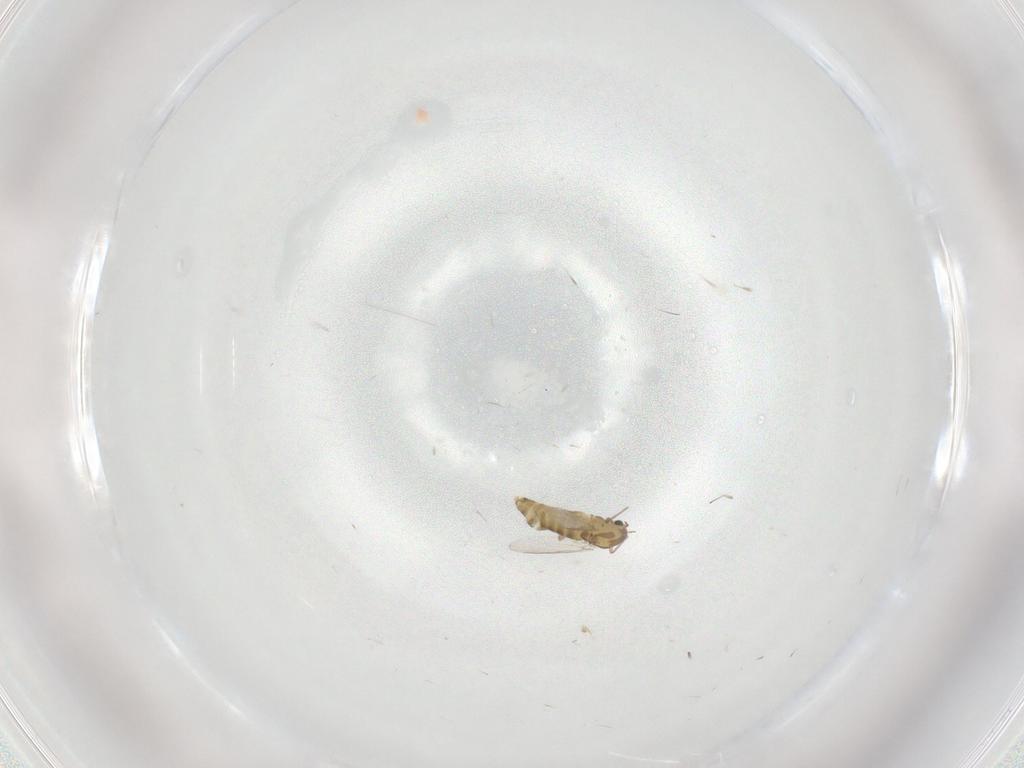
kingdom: Animalia
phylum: Arthropoda
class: Insecta
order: Diptera
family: Chironomidae
